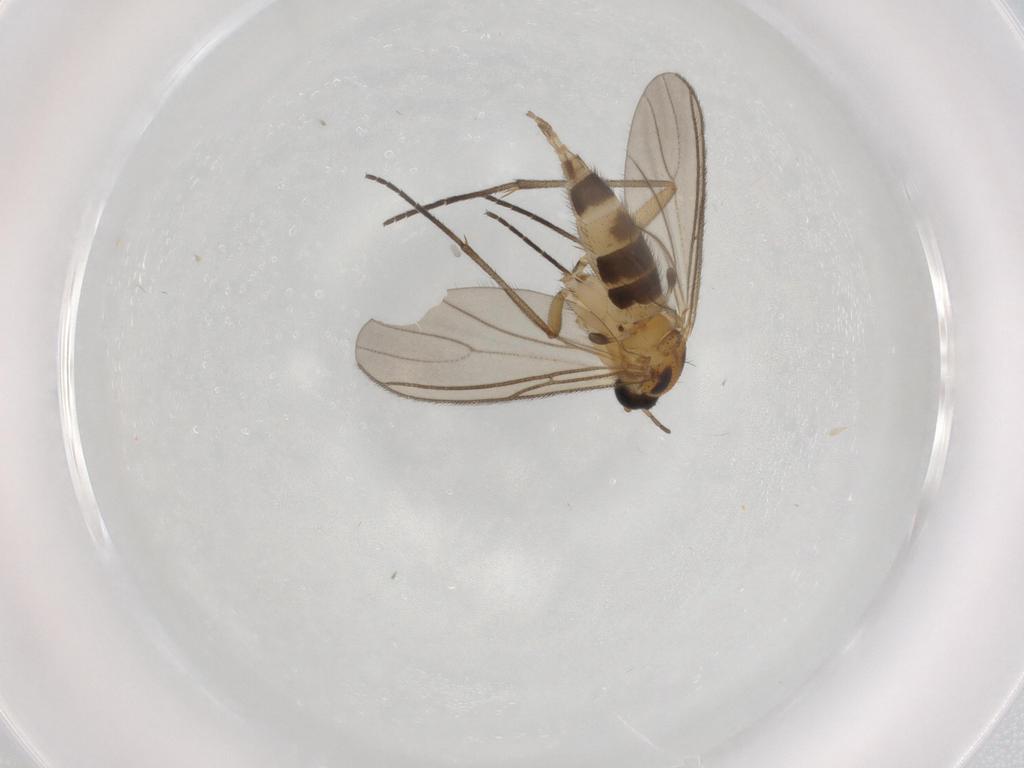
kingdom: Animalia
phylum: Arthropoda
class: Insecta
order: Diptera
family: Sciaridae
